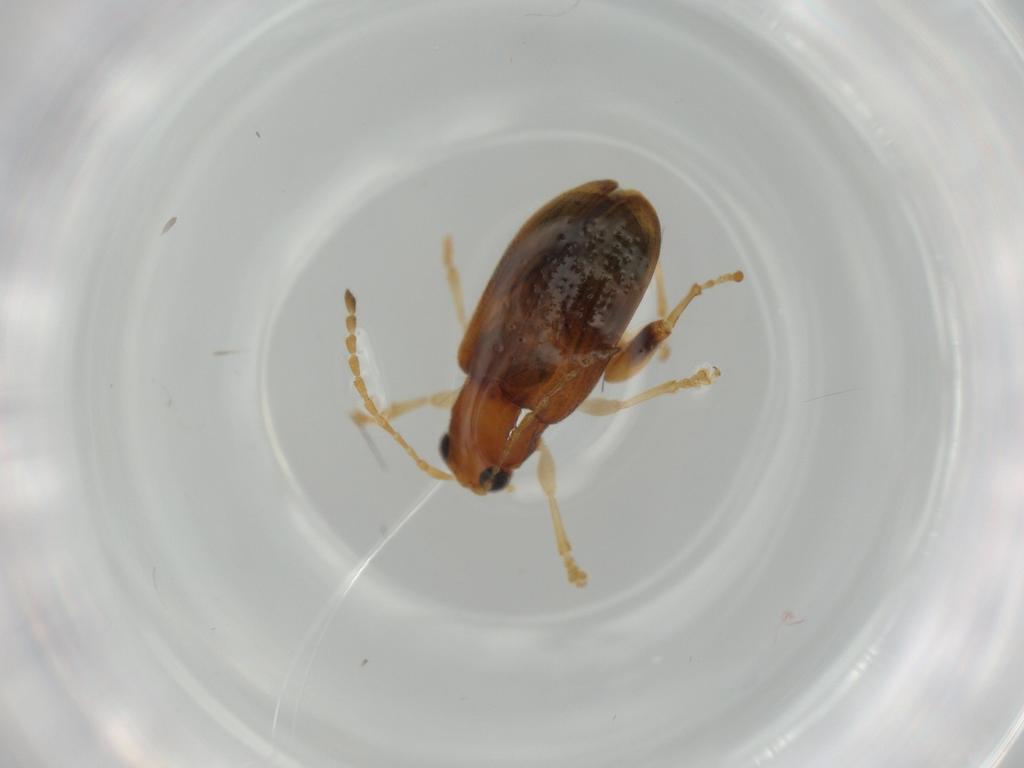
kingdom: Animalia
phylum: Arthropoda
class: Insecta
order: Coleoptera
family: Chrysomelidae
